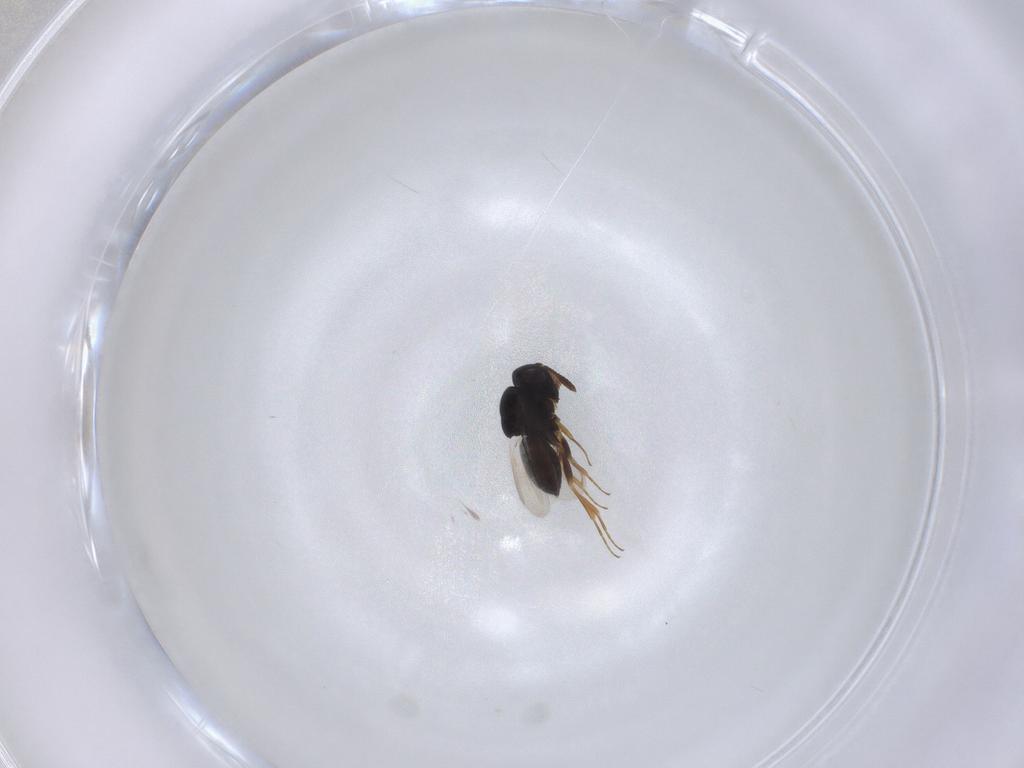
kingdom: Animalia
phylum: Arthropoda
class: Insecta
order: Hymenoptera
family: Scelionidae
